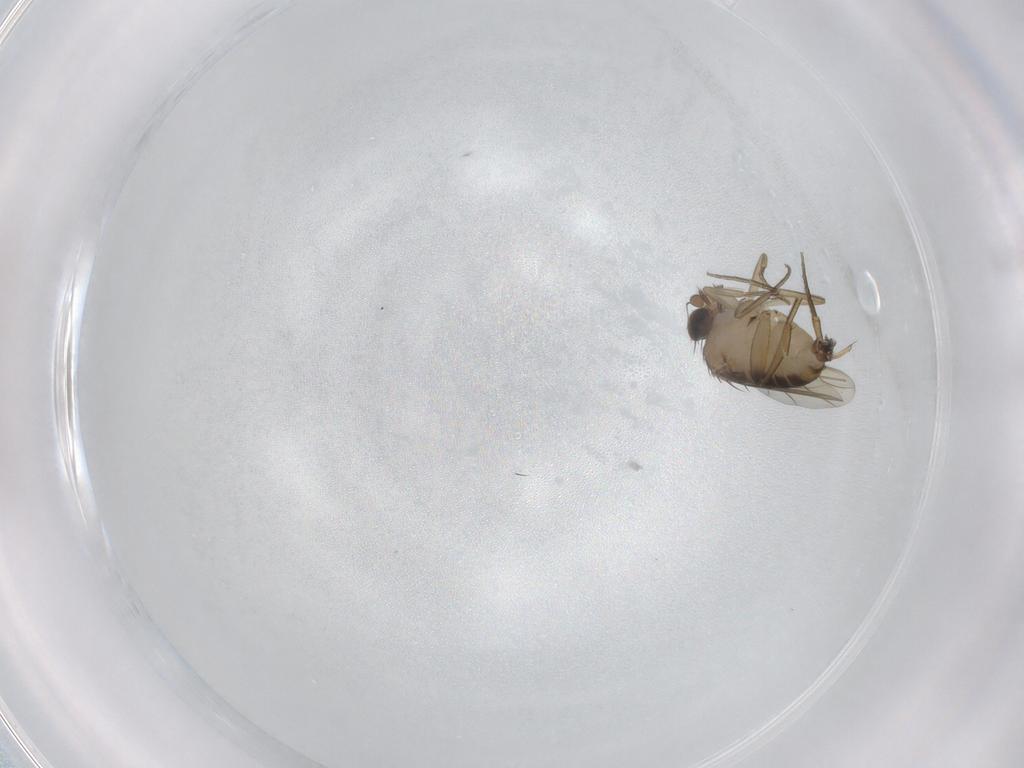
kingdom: Animalia
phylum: Arthropoda
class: Insecta
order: Diptera
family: Phoridae
